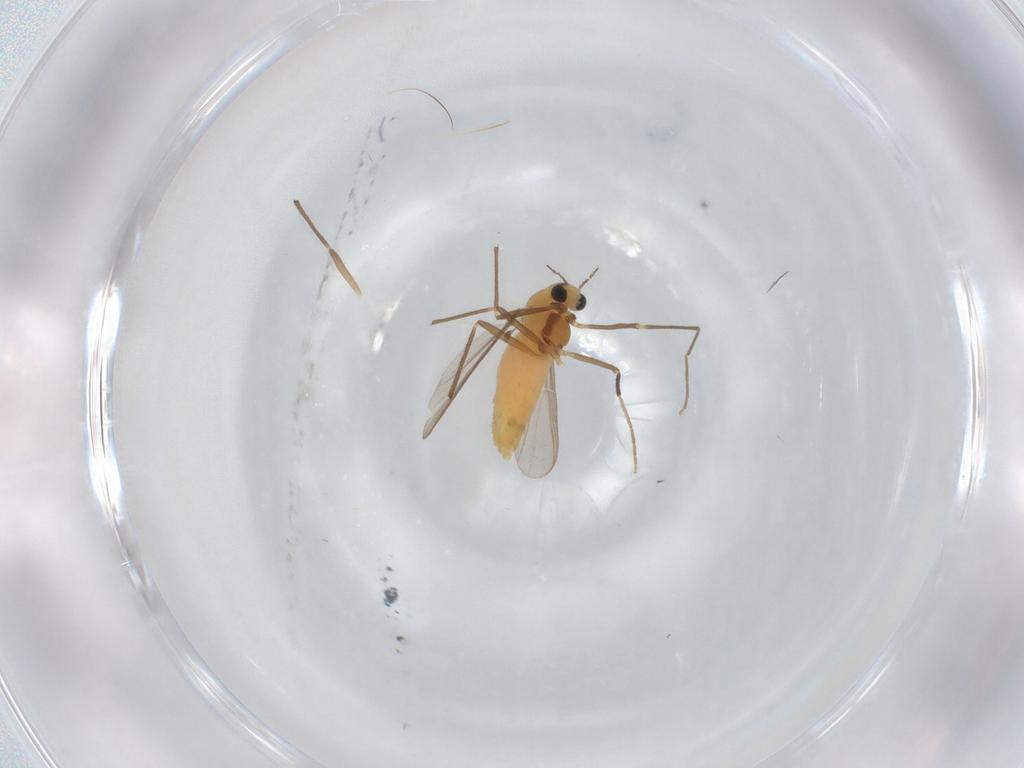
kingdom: Animalia
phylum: Arthropoda
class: Insecta
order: Diptera
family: Chironomidae
